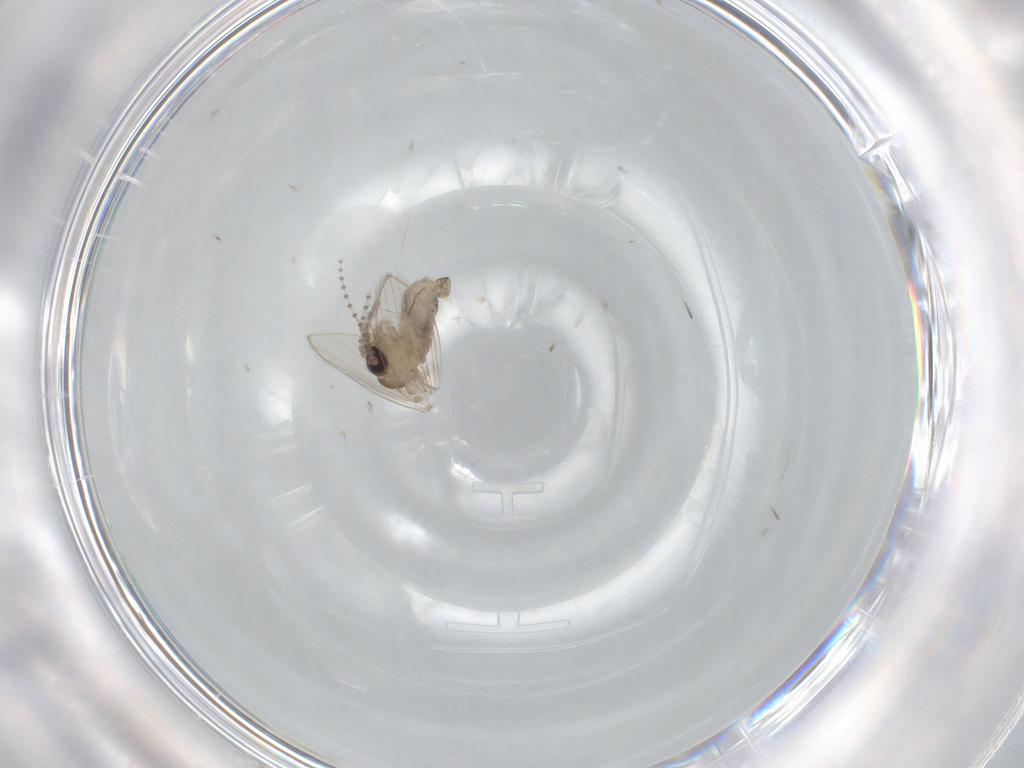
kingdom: Animalia
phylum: Arthropoda
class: Insecta
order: Diptera
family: Psychodidae
